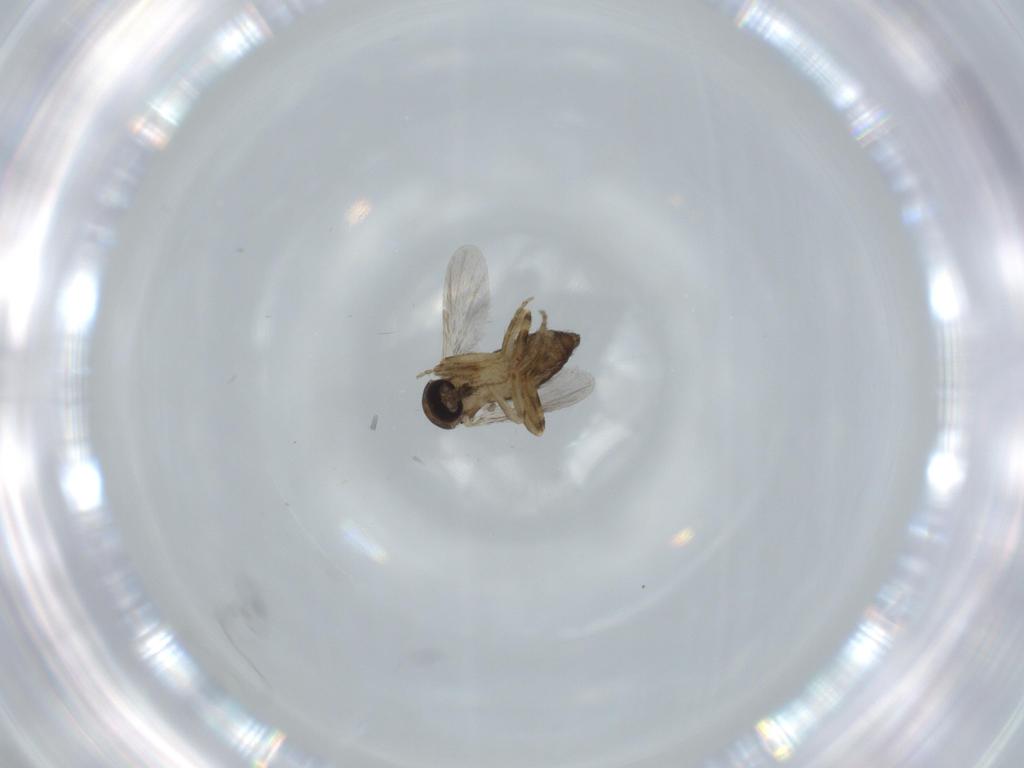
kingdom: Animalia
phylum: Arthropoda
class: Insecta
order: Diptera
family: Ceratopogonidae
